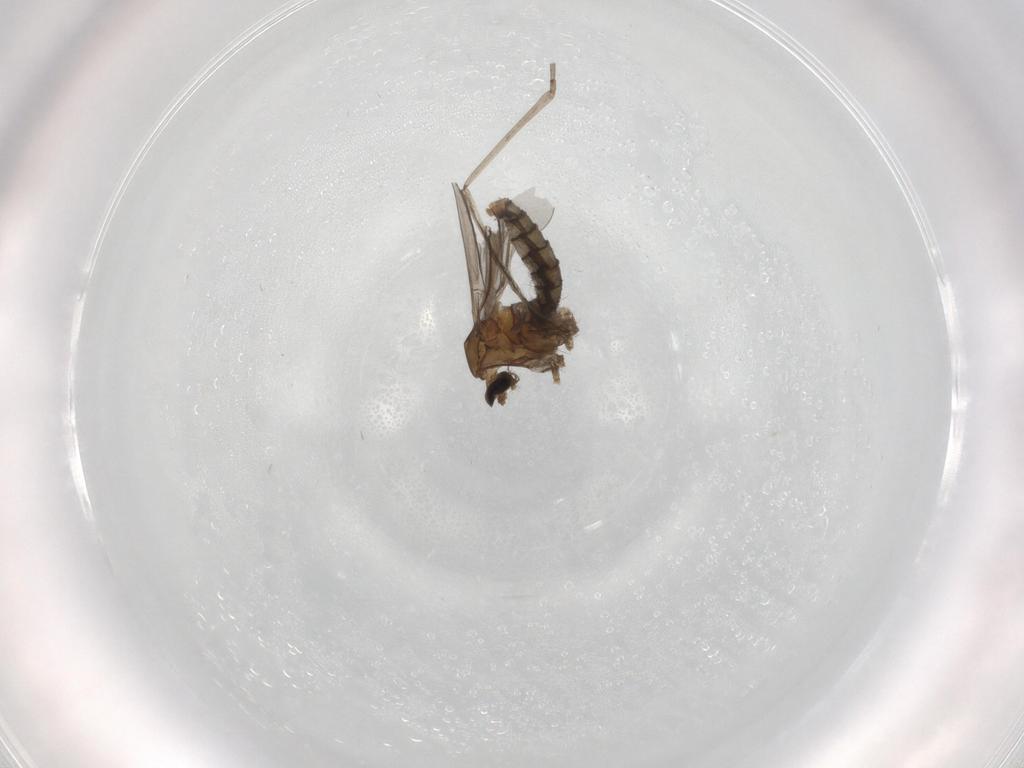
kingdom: Animalia
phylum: Arthropoda
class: Insecta
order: Diptera
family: Cecidomyiidae
